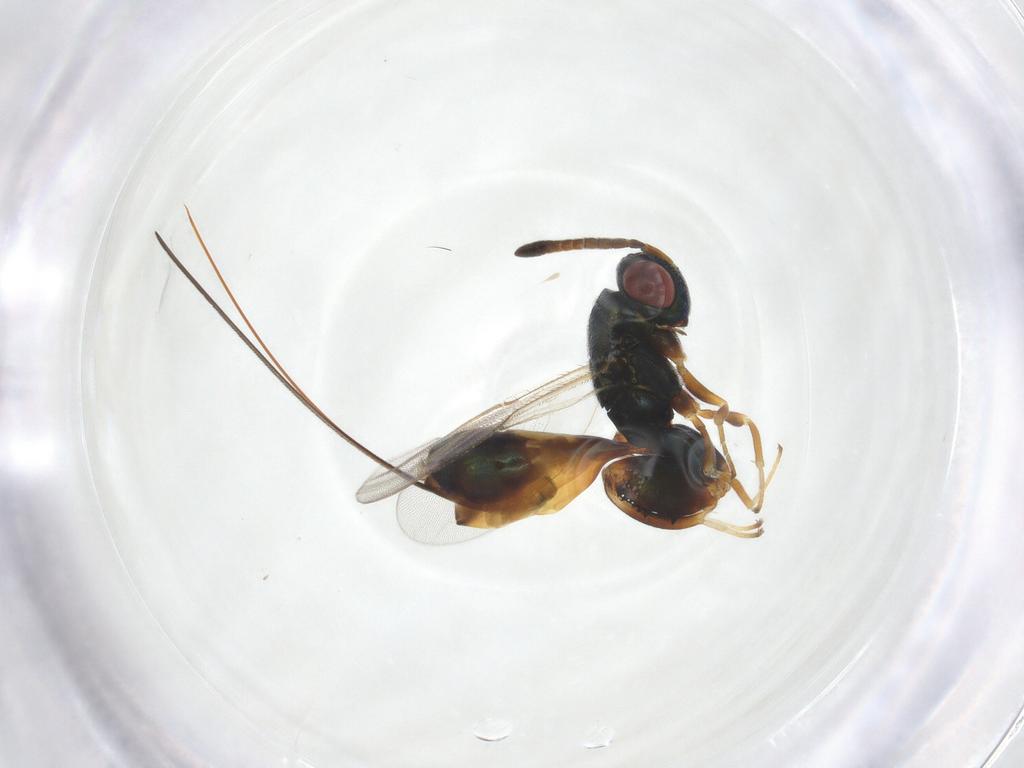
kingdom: Animalia
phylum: Arthropoda
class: Insecta
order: Hymenoptera
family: Torymidae
